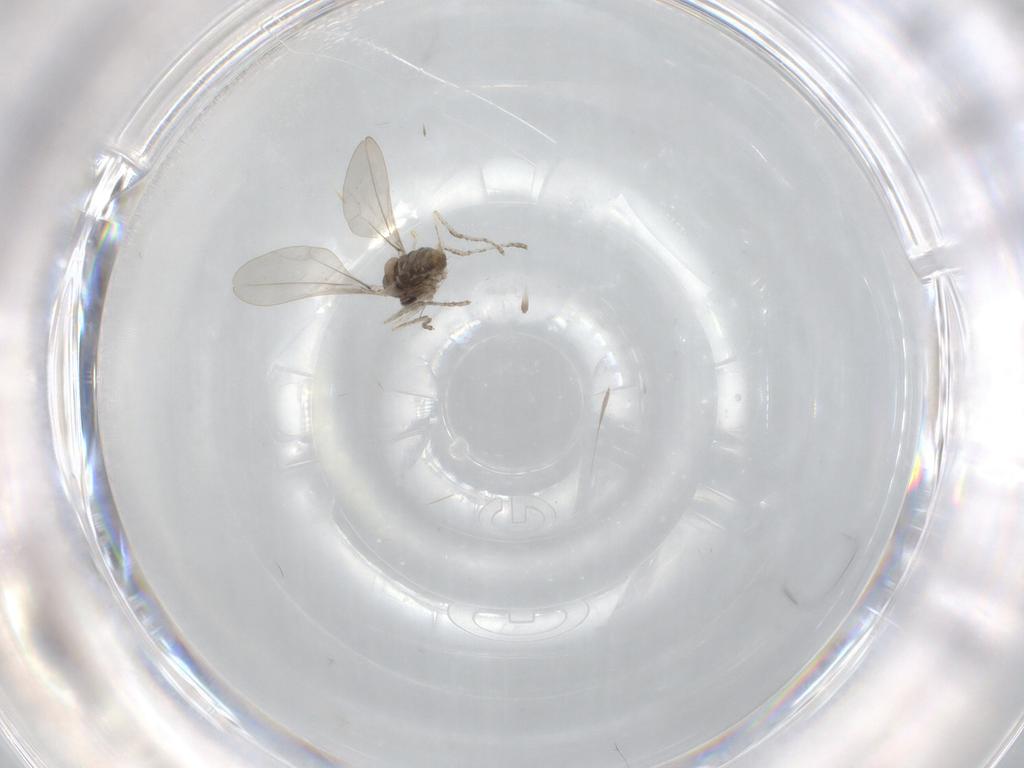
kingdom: Animalia
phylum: Arthropoda
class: Insecta
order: Diptera
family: Cecidomyiidae
